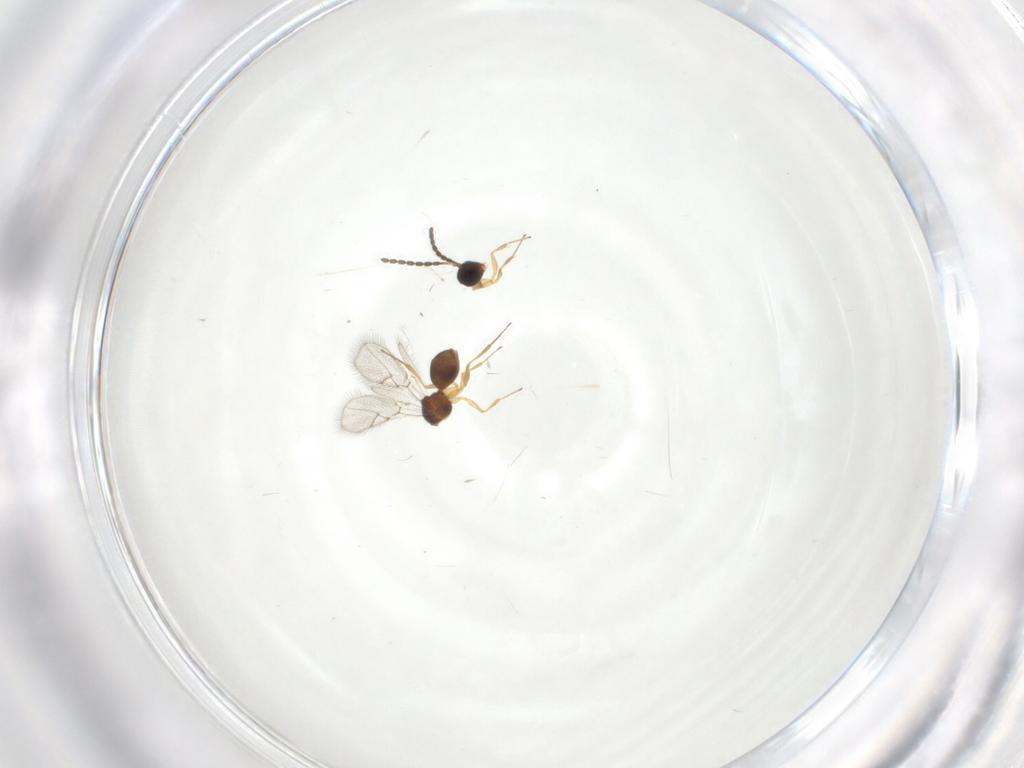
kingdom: Animalia
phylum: Arthropoda
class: Insecta
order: Hymenoptera
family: Figitidae
